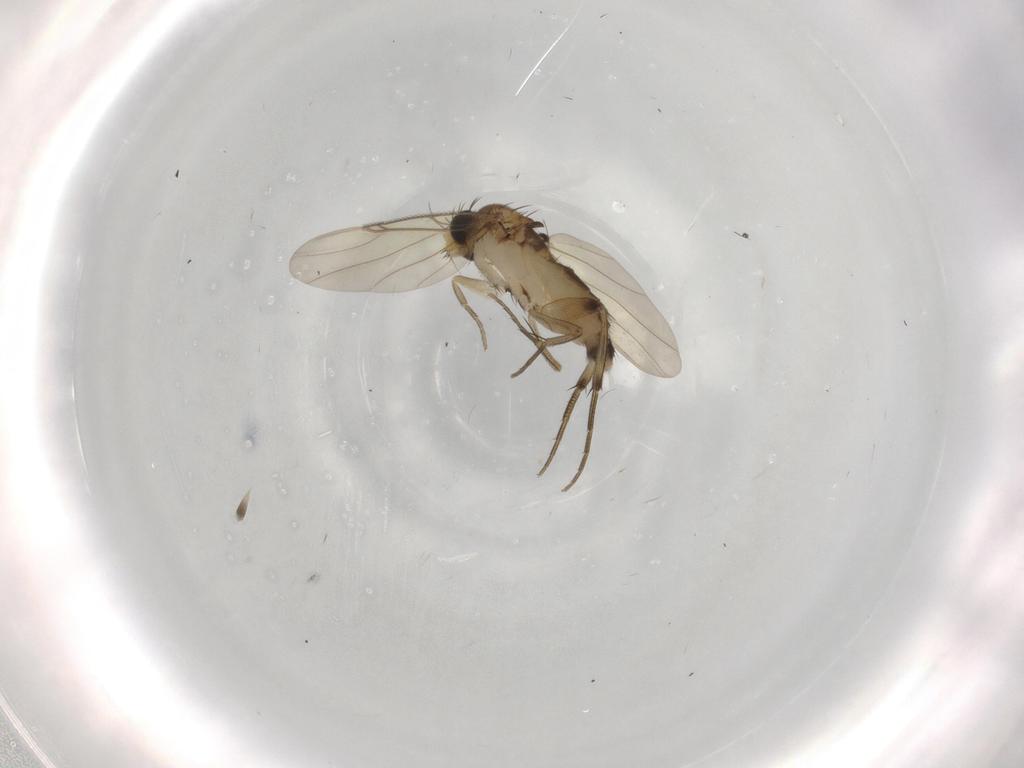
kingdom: Animalia
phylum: Arthropoda
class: Insecta
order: Diptera
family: Phoridae
